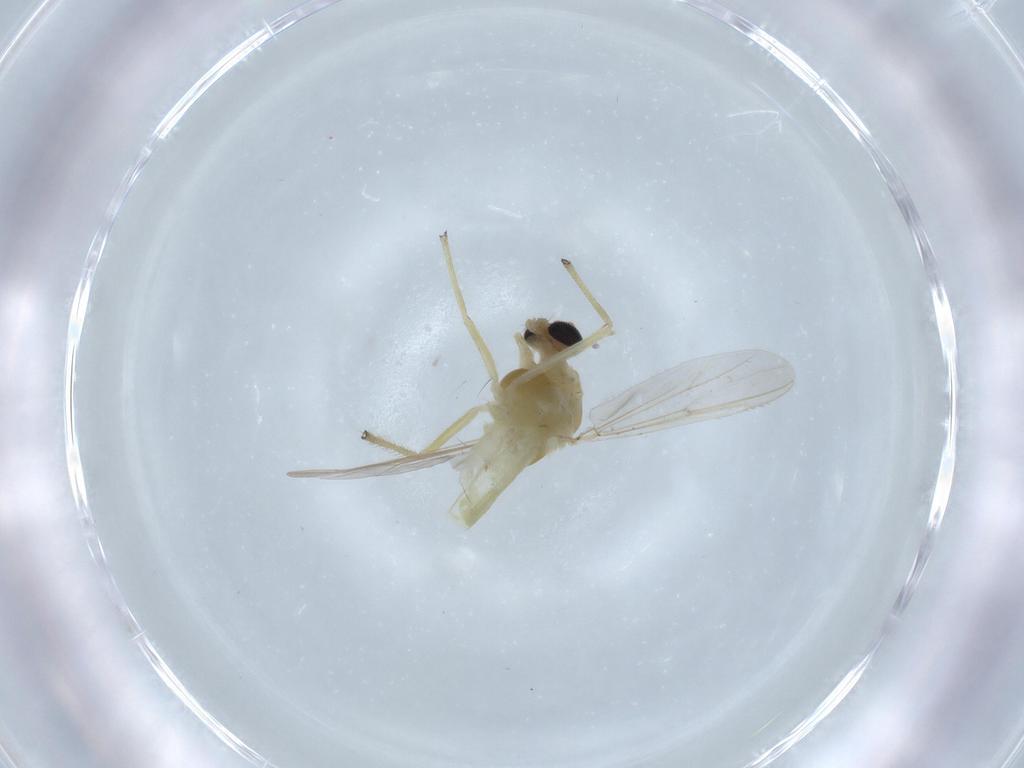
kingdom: Animalia
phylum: Arthropoda
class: Insecta
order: Diptera
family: Chironomidae
